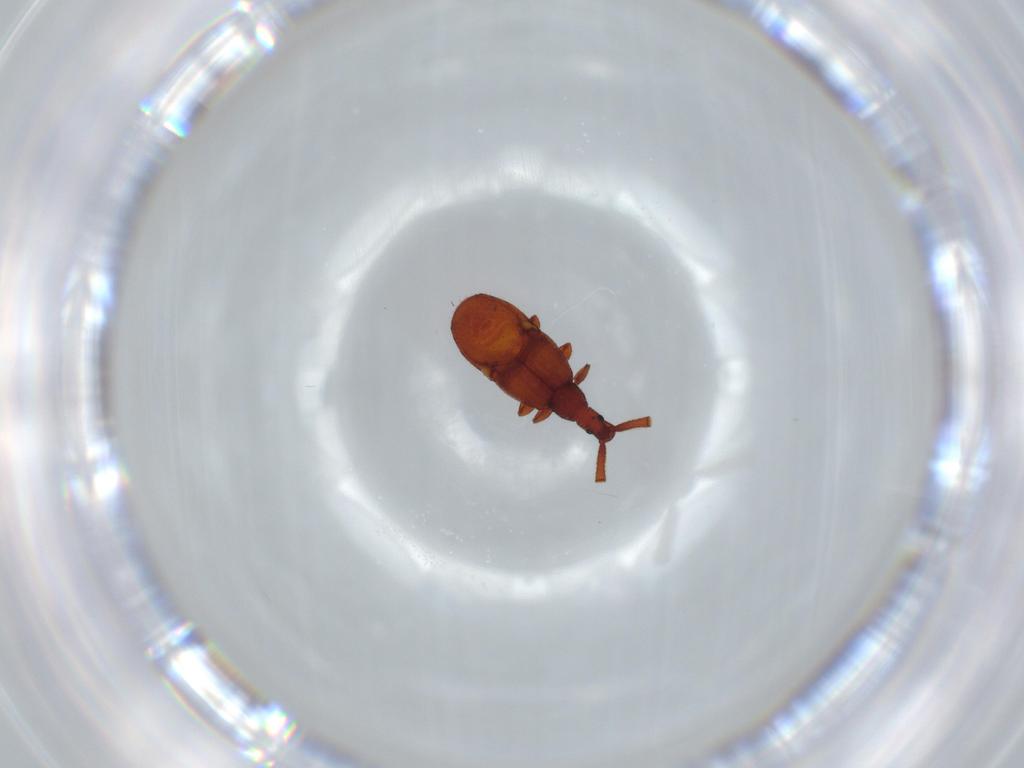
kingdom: Animalia
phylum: Arthropoda
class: Insecta
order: Coleoptera
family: Staphylinidae
